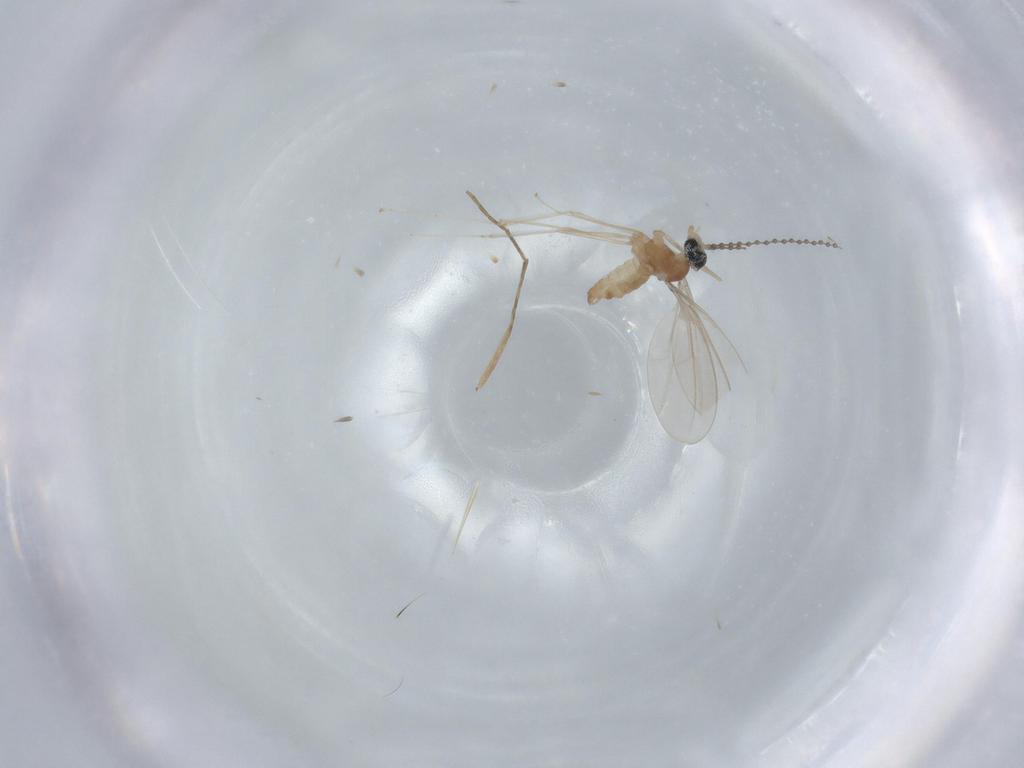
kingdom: Animalia
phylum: Arthropoda
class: Insecta
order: Diptera
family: Cecidomyiidae
